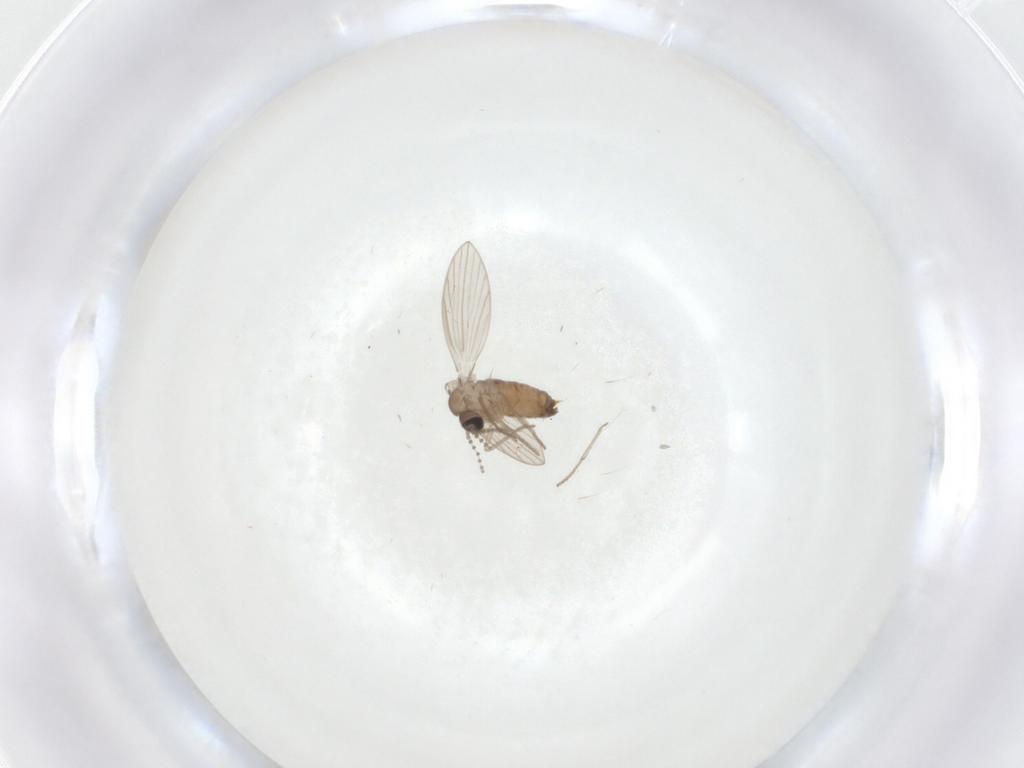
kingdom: Animalia
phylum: Arthropoda
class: Insecta
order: Diptera
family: Psychodidae
